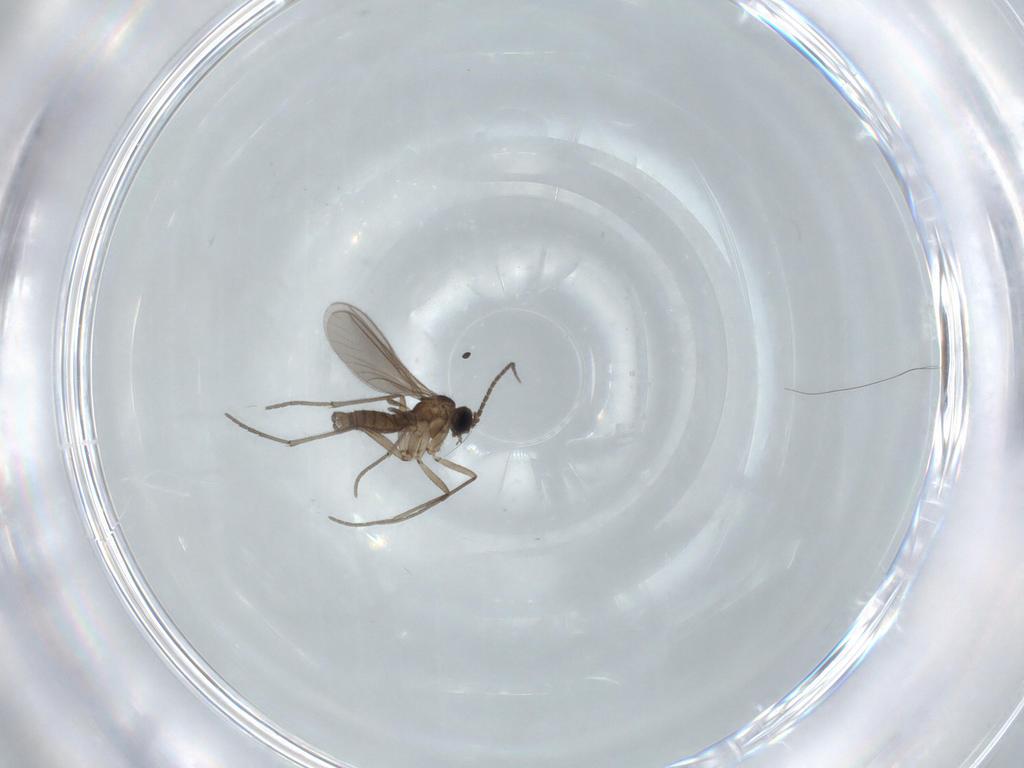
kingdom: Animalia
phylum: Arthropoda
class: Insecta
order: Diptera
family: Sciaridae
